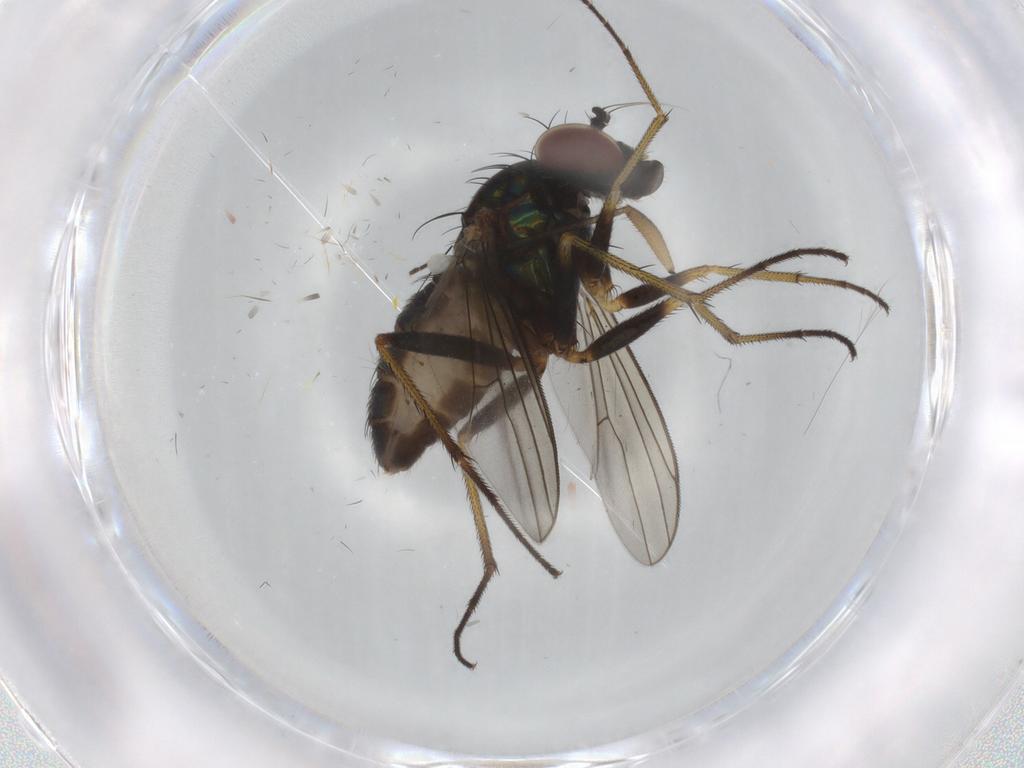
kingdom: Animalia
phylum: Arthropoda
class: Insecta
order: Diptera
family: Dolichopodidae
